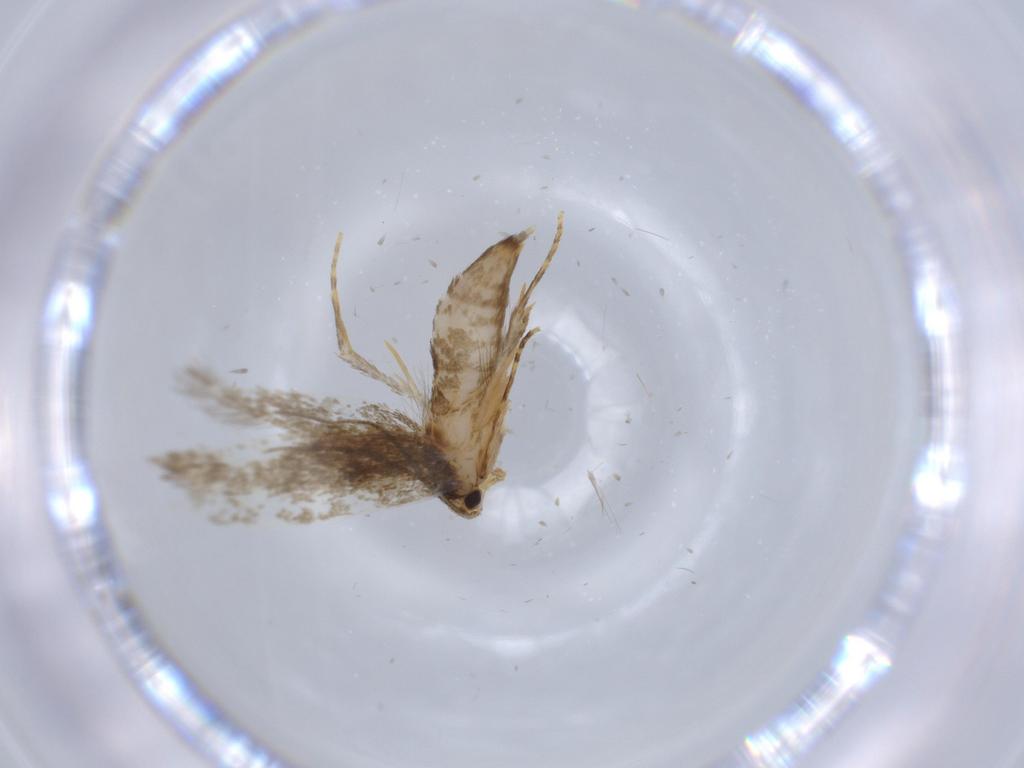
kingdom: Animalia
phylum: Arthropoda
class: Insecta
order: Lepidoptera
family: Tineidae
